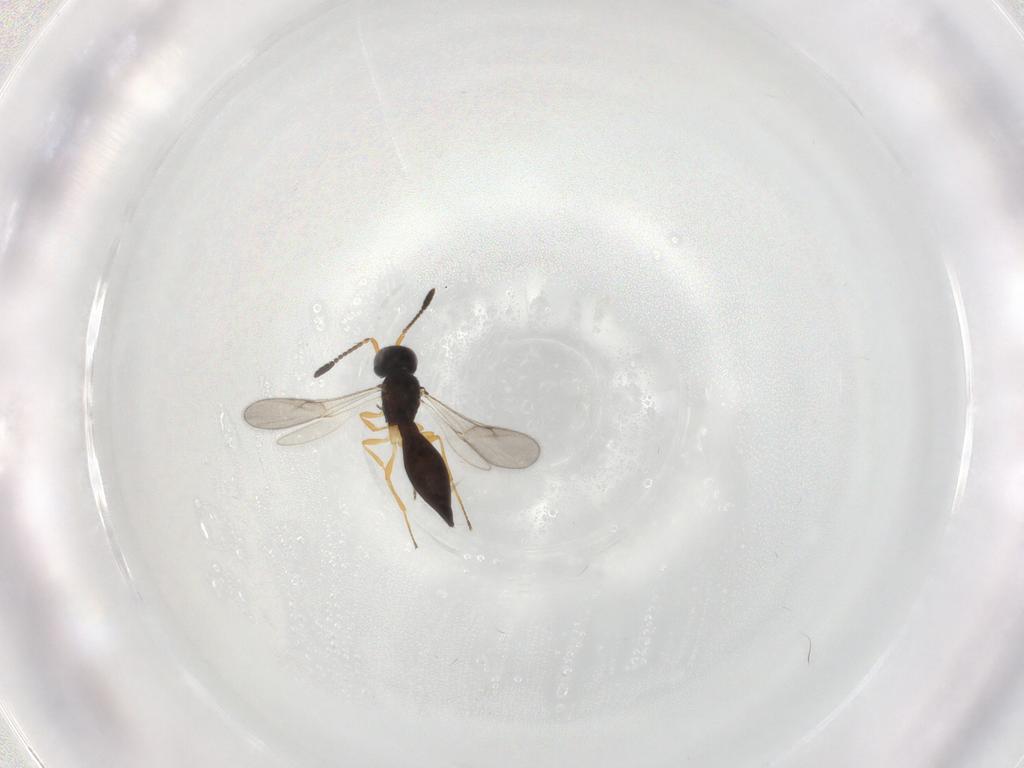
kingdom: Animalia
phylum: Arthropoda
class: Insecta
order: Hymenoptera
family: Scelionidae
